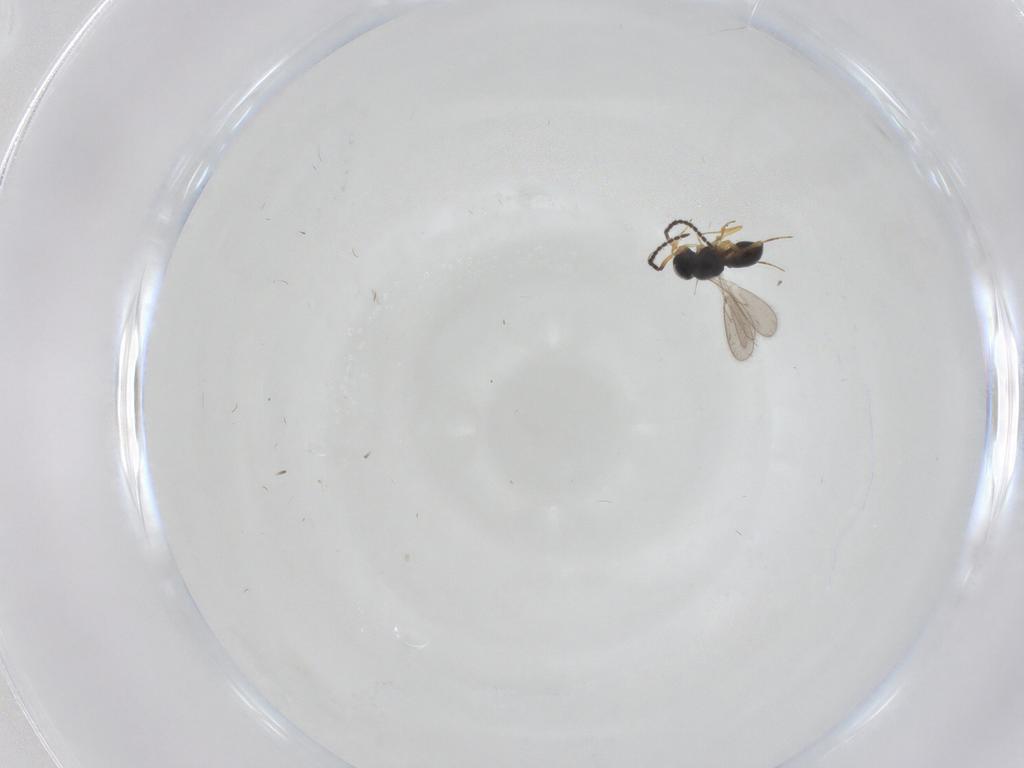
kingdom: Animalia
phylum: Arthropoda
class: Insecta
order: Hymenoptera
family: Scelionidae
